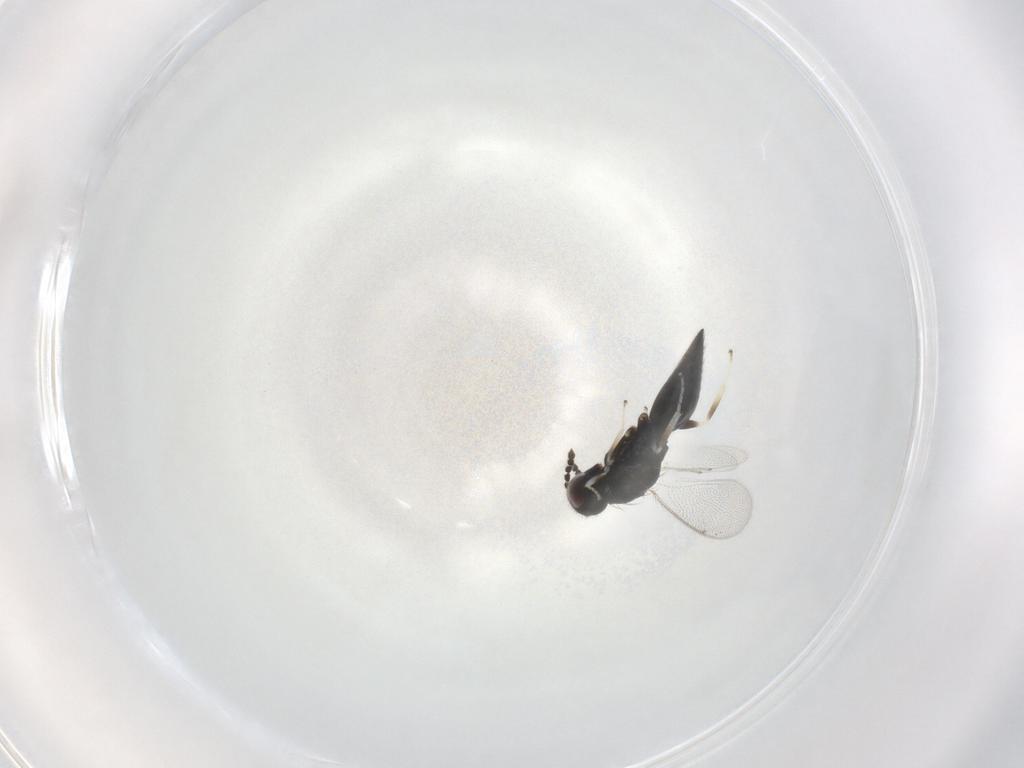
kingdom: Animalia
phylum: Arthropoda
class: Insecta
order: Hymenoptera
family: Eulophidae
